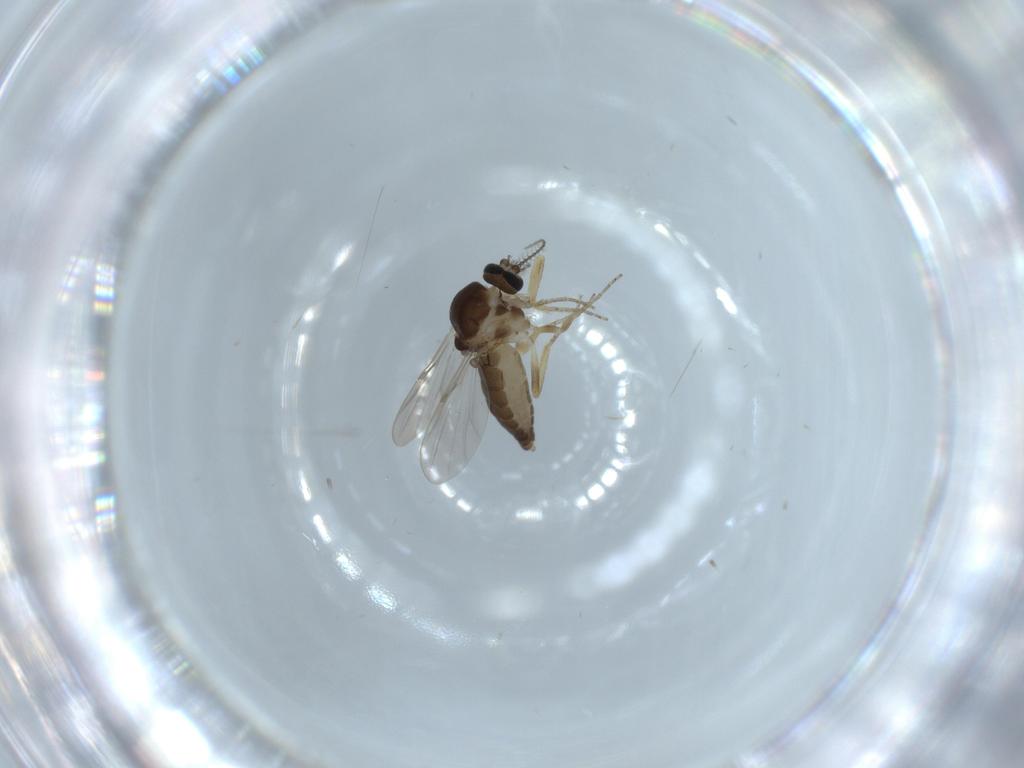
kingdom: Animalia
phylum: Arthropoda
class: Insecta
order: Diptera
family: Ceratopogonidae
